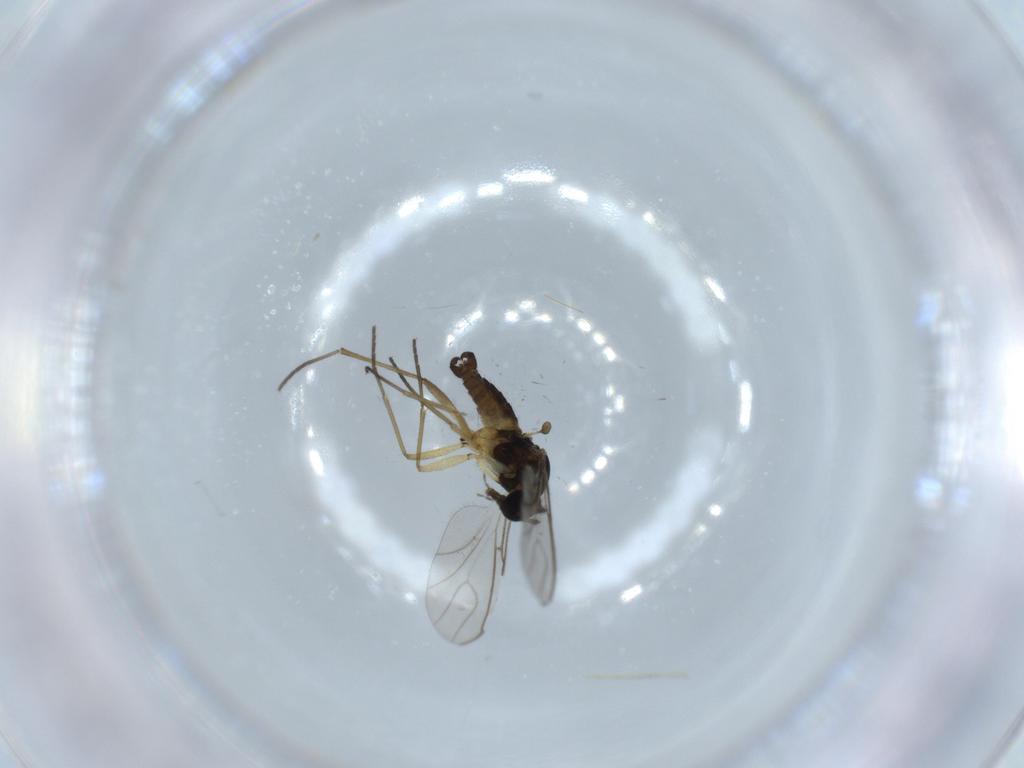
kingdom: Animalia
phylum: Arthropoda
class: Insecta
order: Diptera
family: Sciaridae
